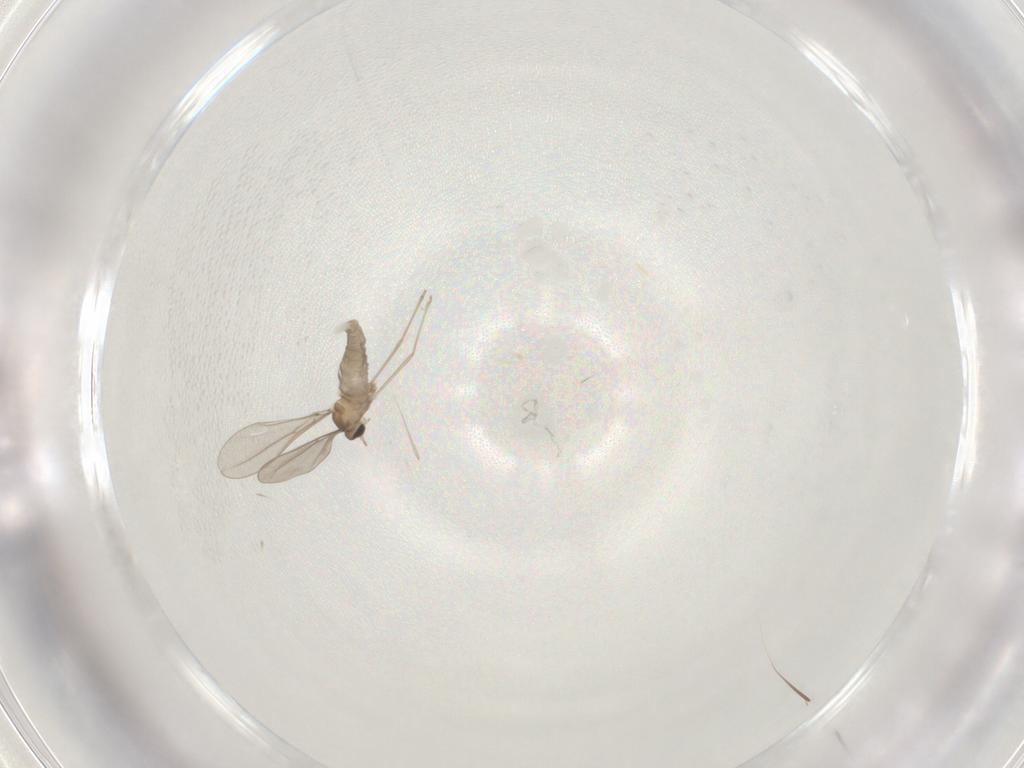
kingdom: Animalia
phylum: Arthropoda
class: Insecta
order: Diptera
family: Cecidomyiidae
